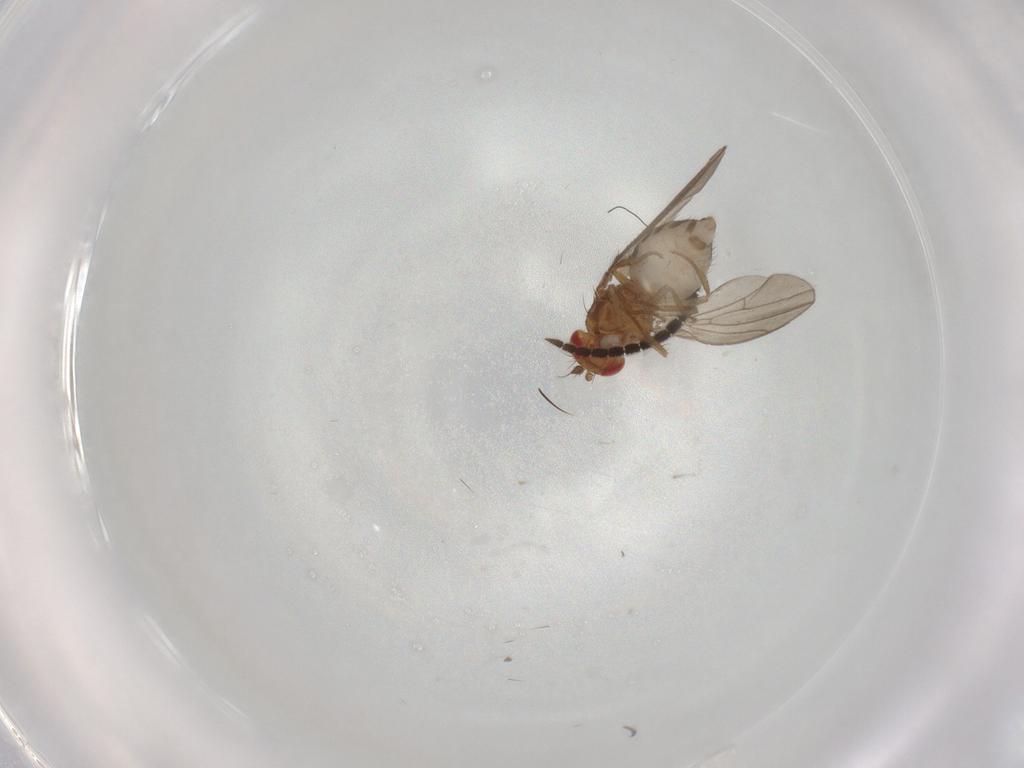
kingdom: Animalia
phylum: Arthropoda
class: Insecta
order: Diptera
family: Drosophilidae
